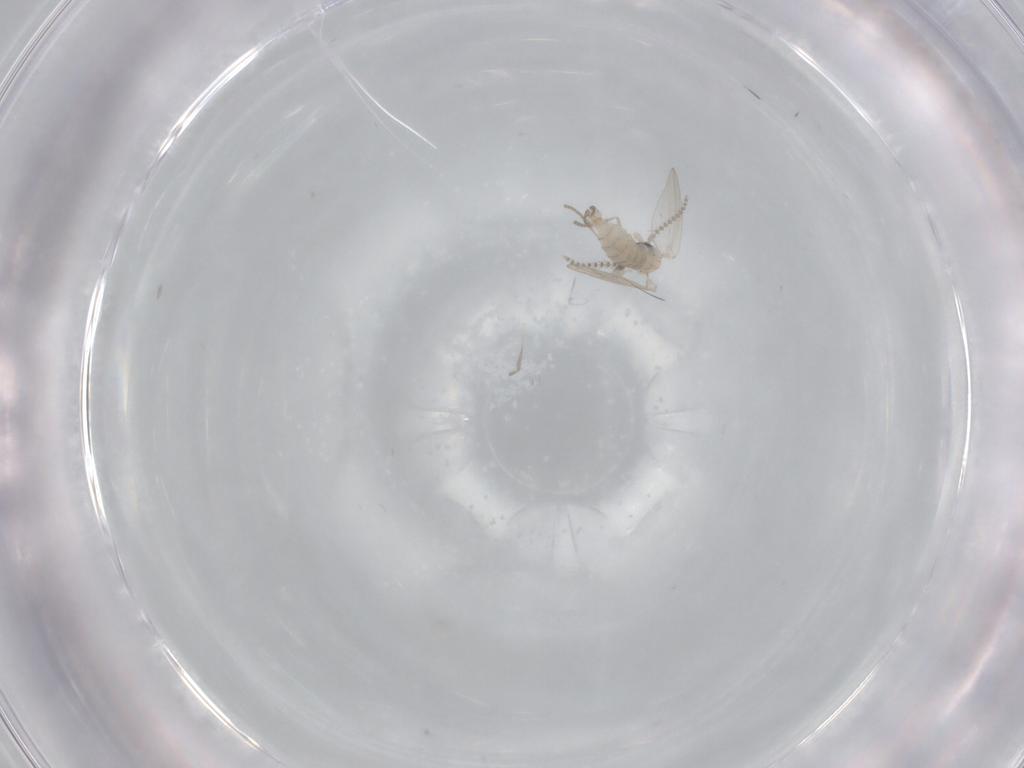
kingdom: Animalia
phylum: Arthropoda
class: Insecta
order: Diptera
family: Psychodidae
